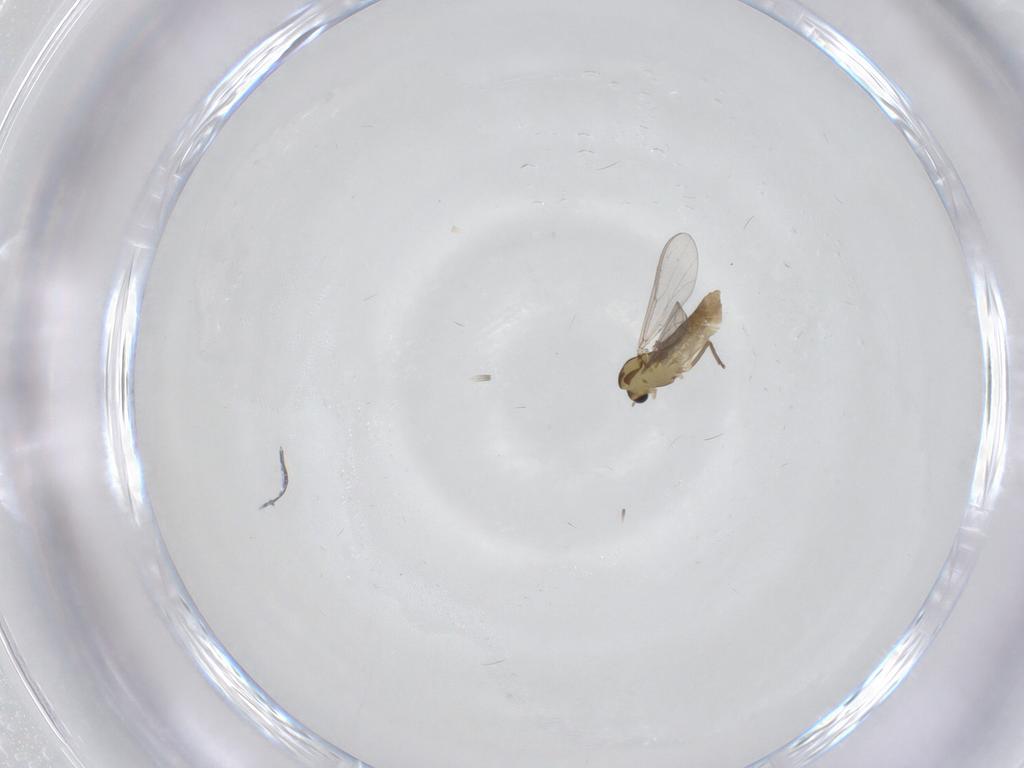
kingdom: Animalia
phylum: Arthropoda
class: Insecta
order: Diptera
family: Chironomidae
